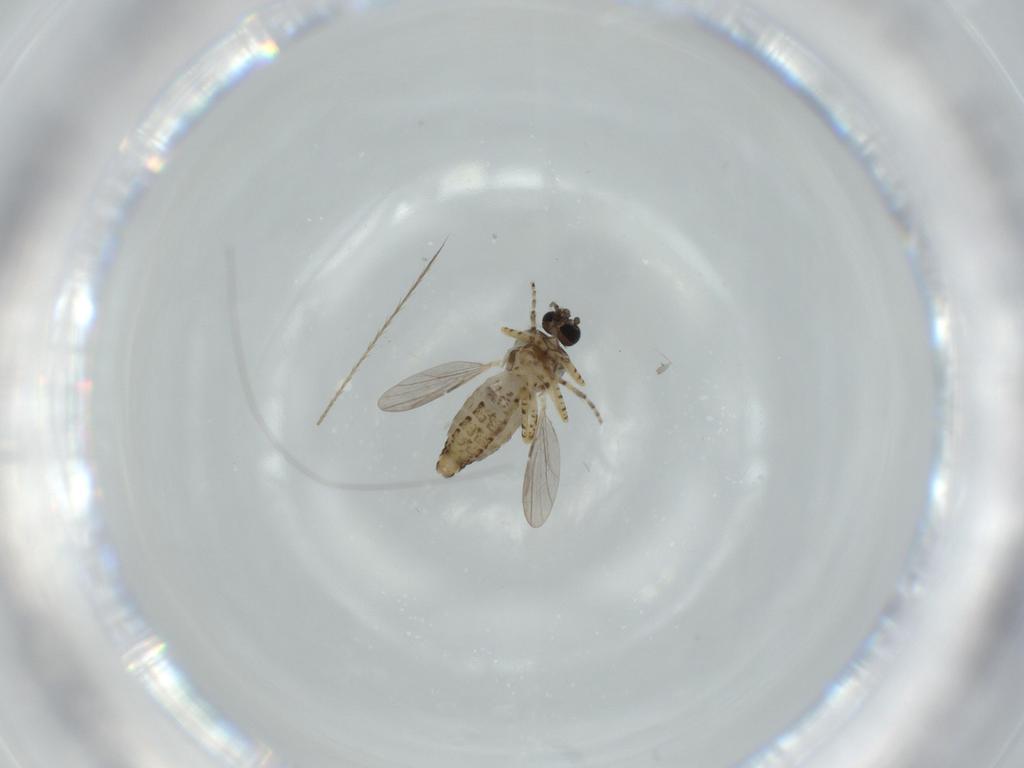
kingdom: Animalia
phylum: Arthropoda
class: Insecta
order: Diptera
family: Ceratopogonidae
